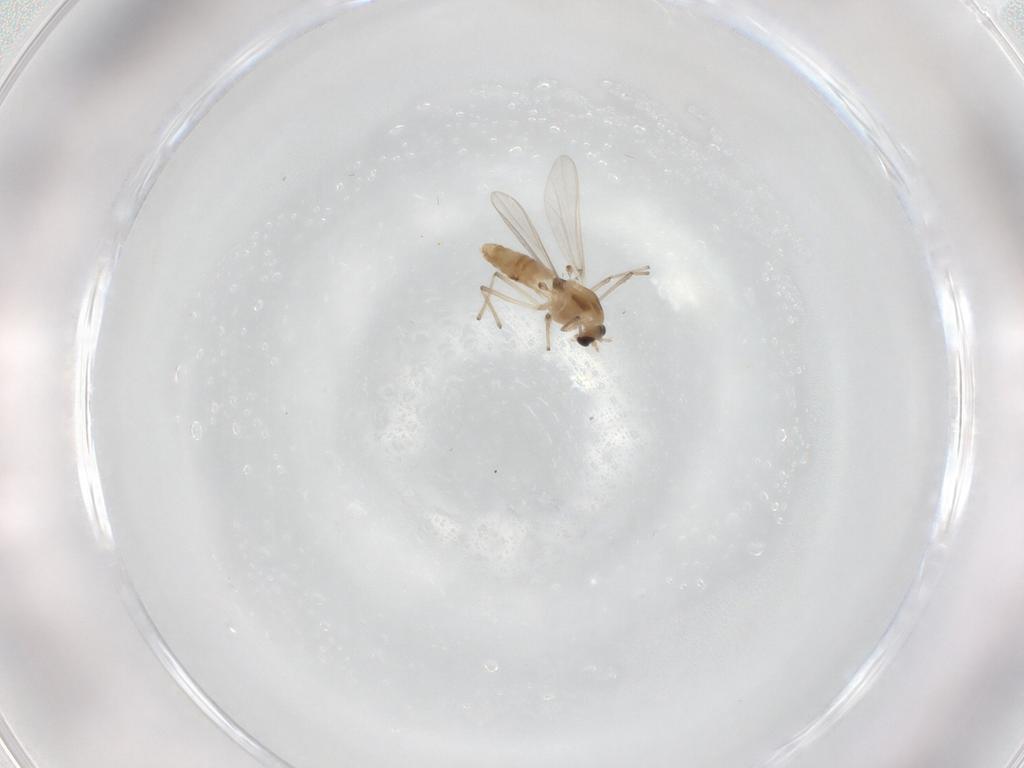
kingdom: Animalia
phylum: Arthropoda
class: Insecta
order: Diptera
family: Chironomidae
